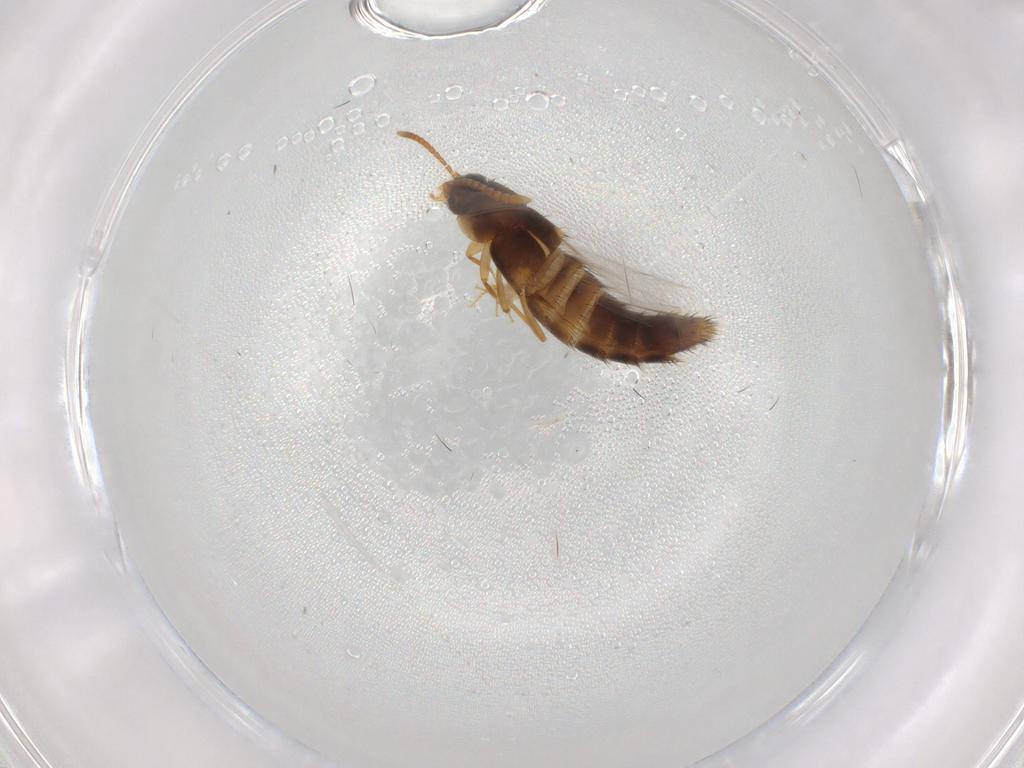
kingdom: Animalia
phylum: Arthropoda
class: Insecta
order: Coleoptera
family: Staphylinidae
